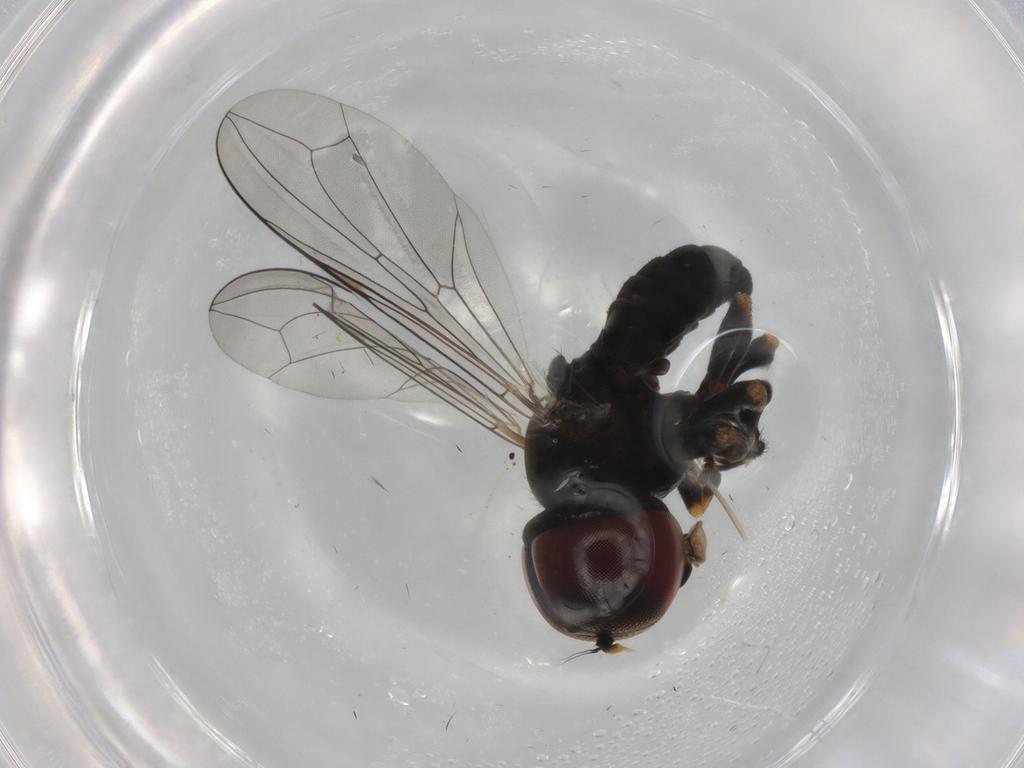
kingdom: Animalia
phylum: Arthropoda
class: Insecta
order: Diptera
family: Pipunculidae
